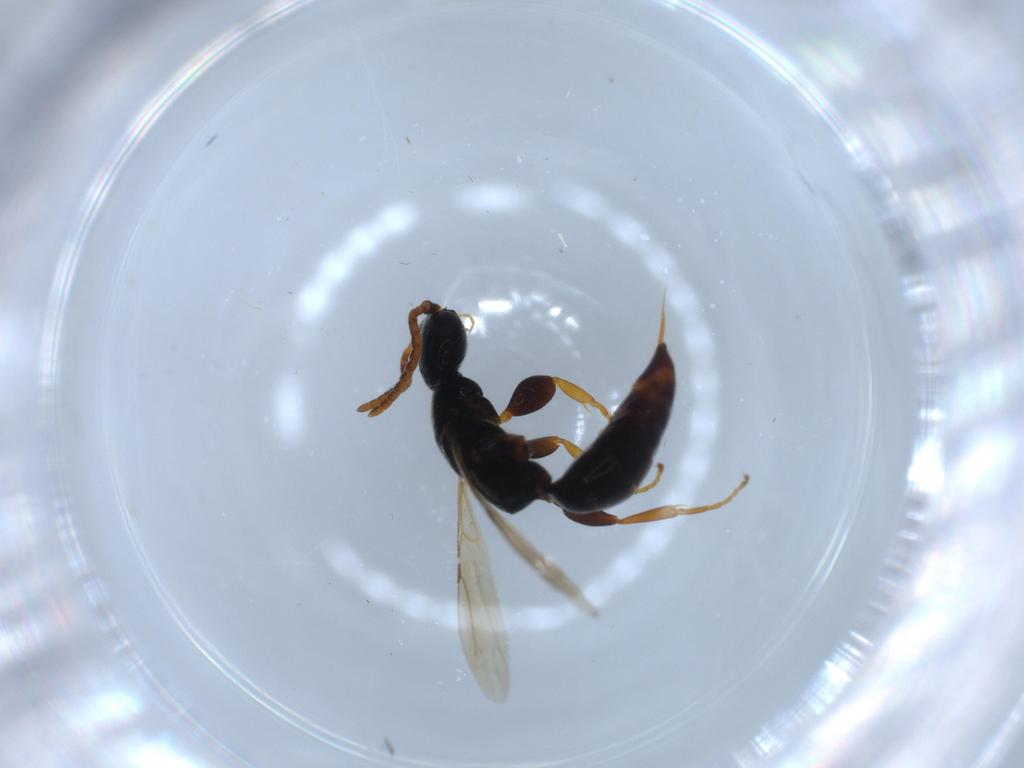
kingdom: Animalia
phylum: Arthropoda
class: Insecta
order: Hymenoptera
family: Bethylidae
